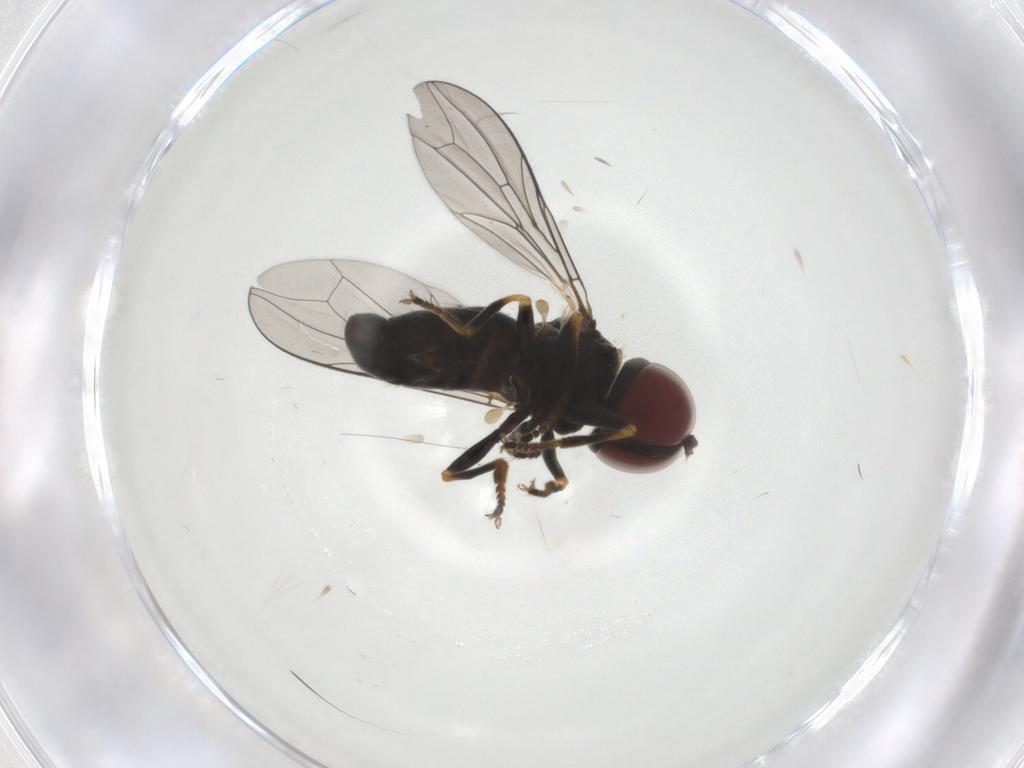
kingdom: Animalia
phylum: Arthropoda
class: Insecta
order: Diptera
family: Pipunculidae
